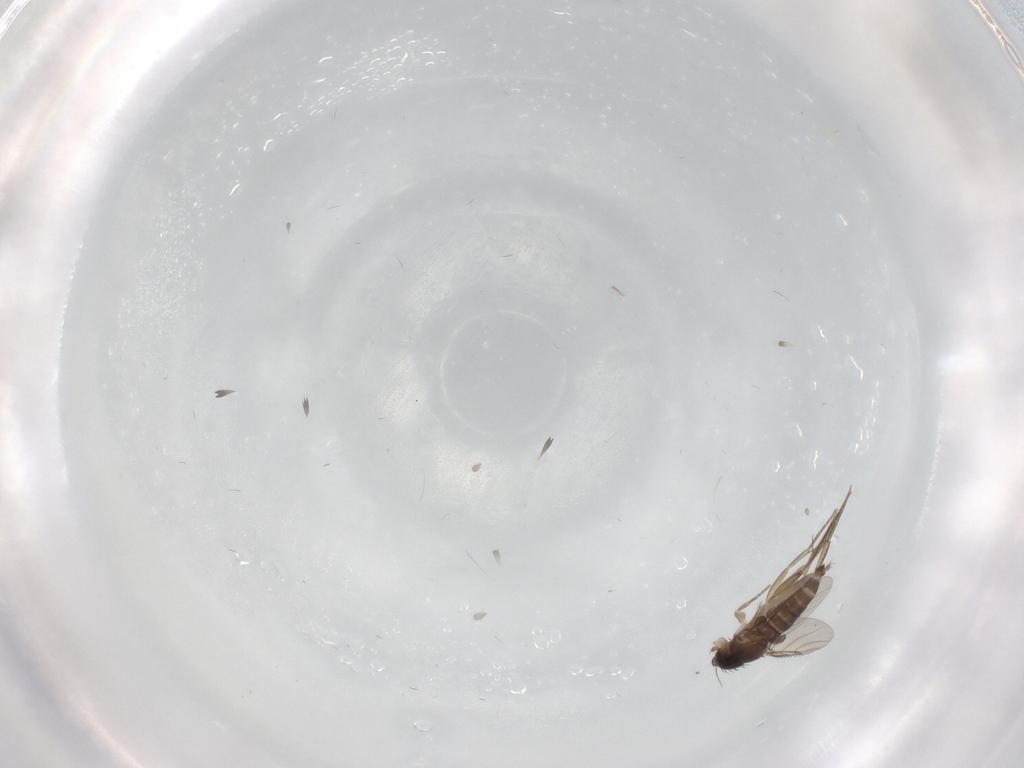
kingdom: Animalia
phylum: Arthropoda
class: Insecta
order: Diptera
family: Phoridae
